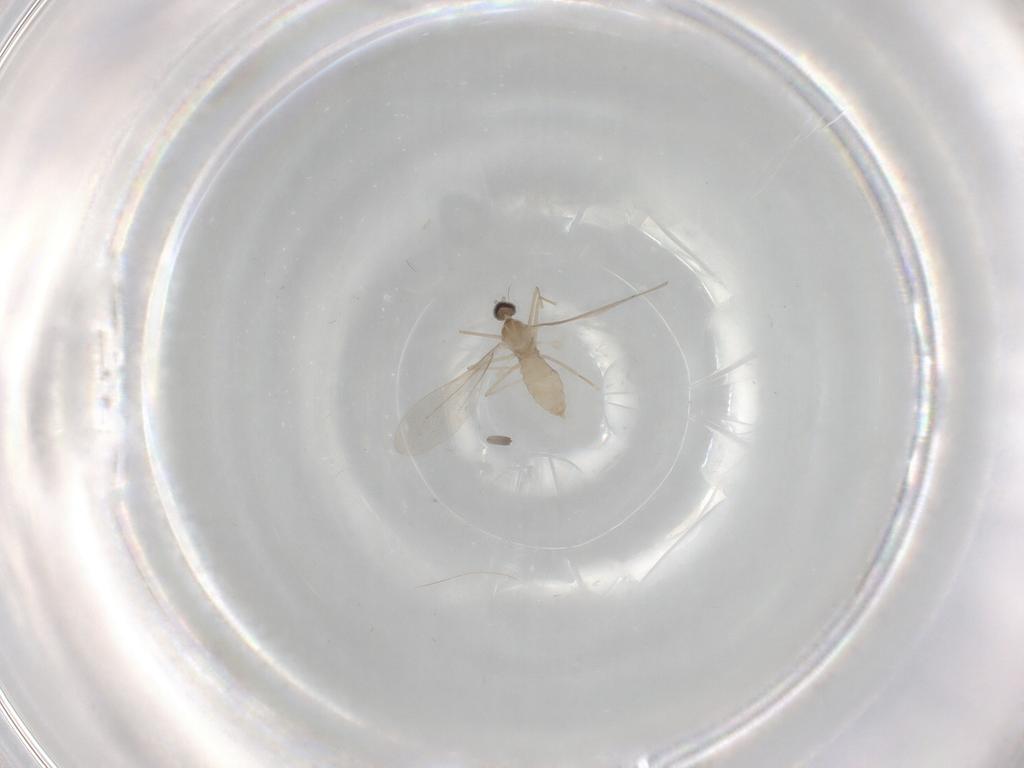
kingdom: Animalia
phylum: Arthropoda
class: Insecta
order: Diptera
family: Cecidomyiidae
